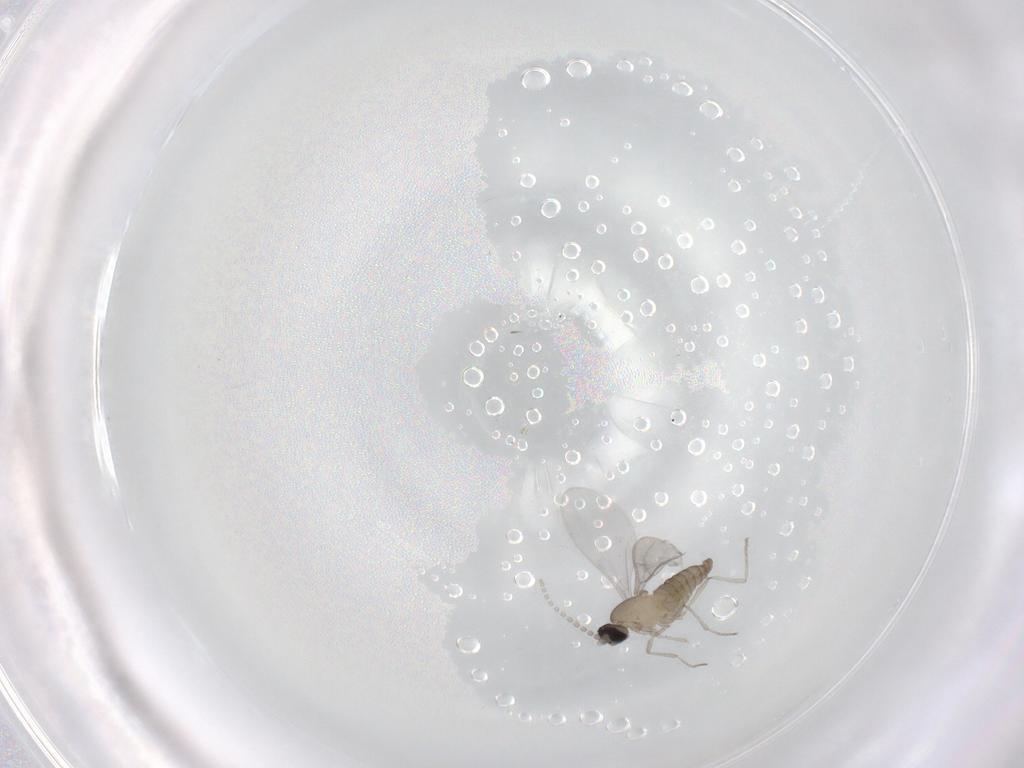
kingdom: Animalia
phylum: Arthropoda
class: Insecta
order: Diptera
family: Cecidomyiidae
